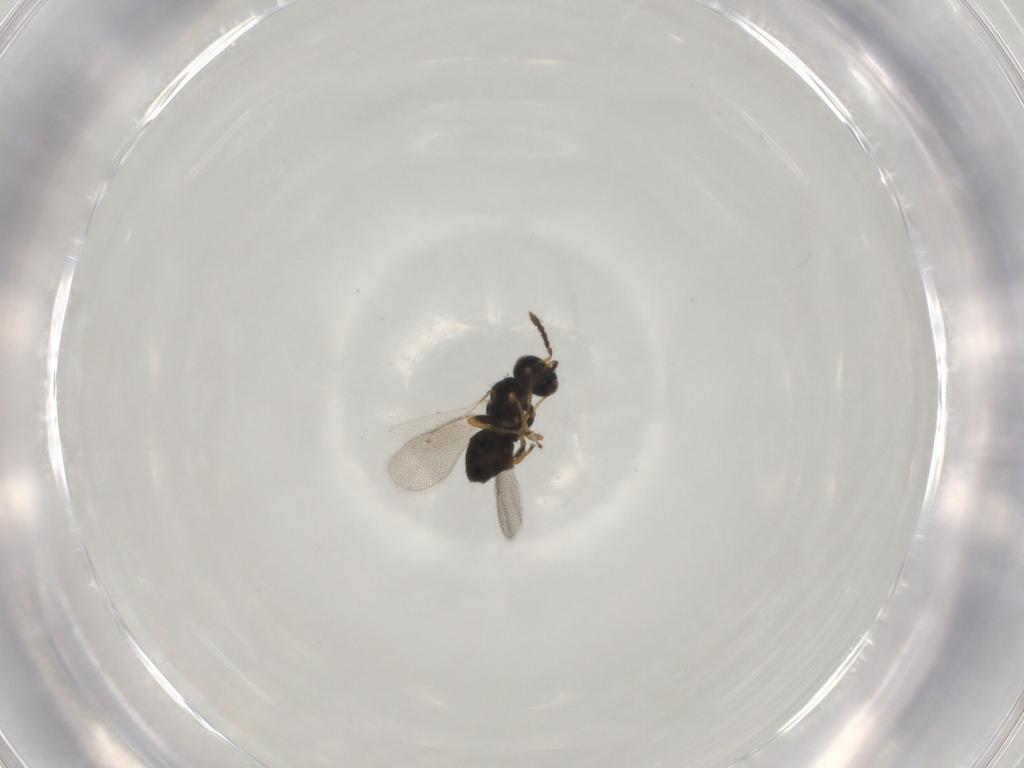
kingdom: Animalia
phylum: Arthropoda
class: Insecta
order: Hymenoptera
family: Eulophidae
